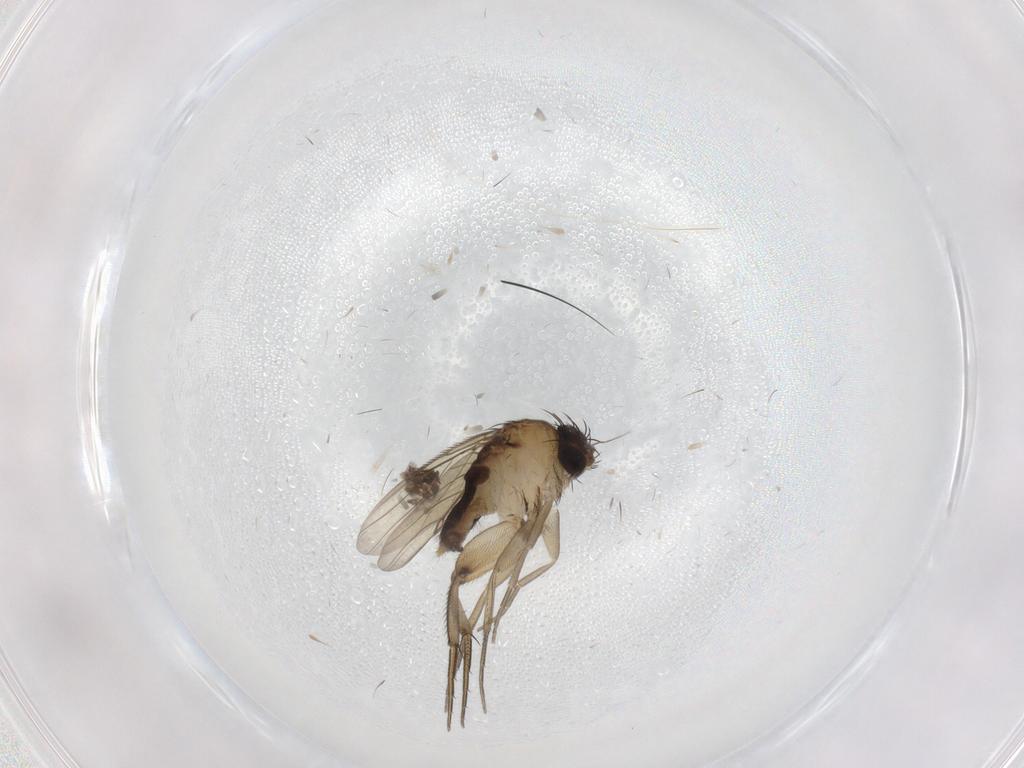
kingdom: Animalia
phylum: Arthropoda
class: Insecta
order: Diptera
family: Phoridae
